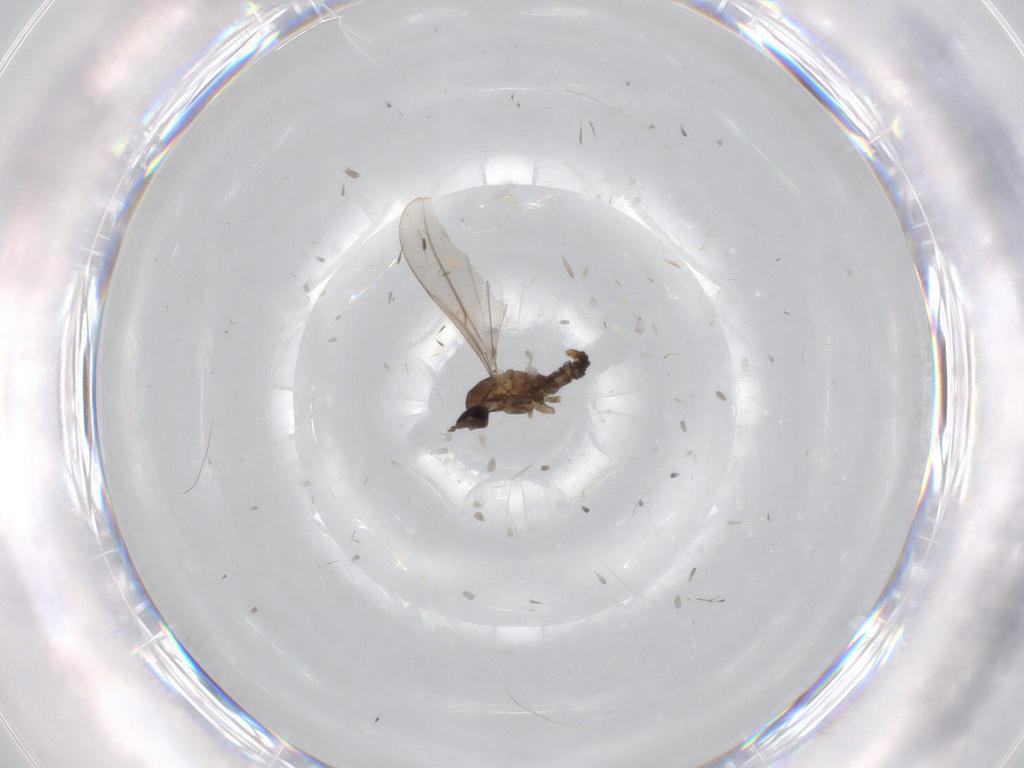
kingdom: Animalia
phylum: Arthropoda
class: Insecta
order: Diptera
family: Cecidomyiidae
